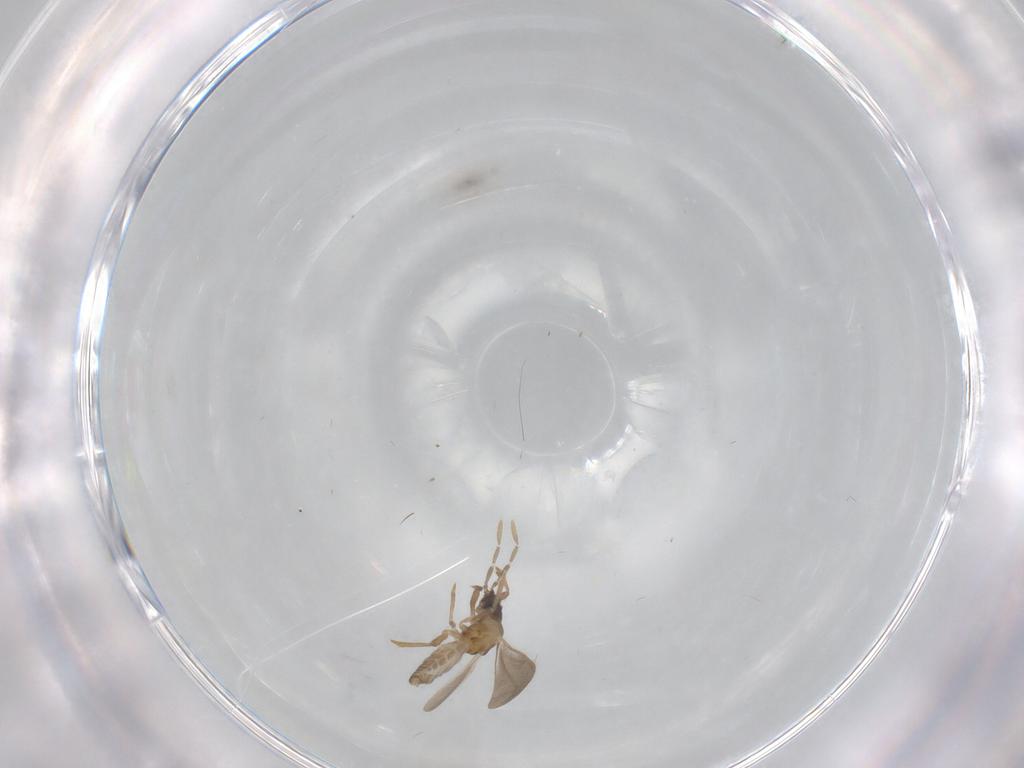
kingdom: Animalia
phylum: Arthropoda
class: Insecta
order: Hemiptera
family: Enicocephalidae
